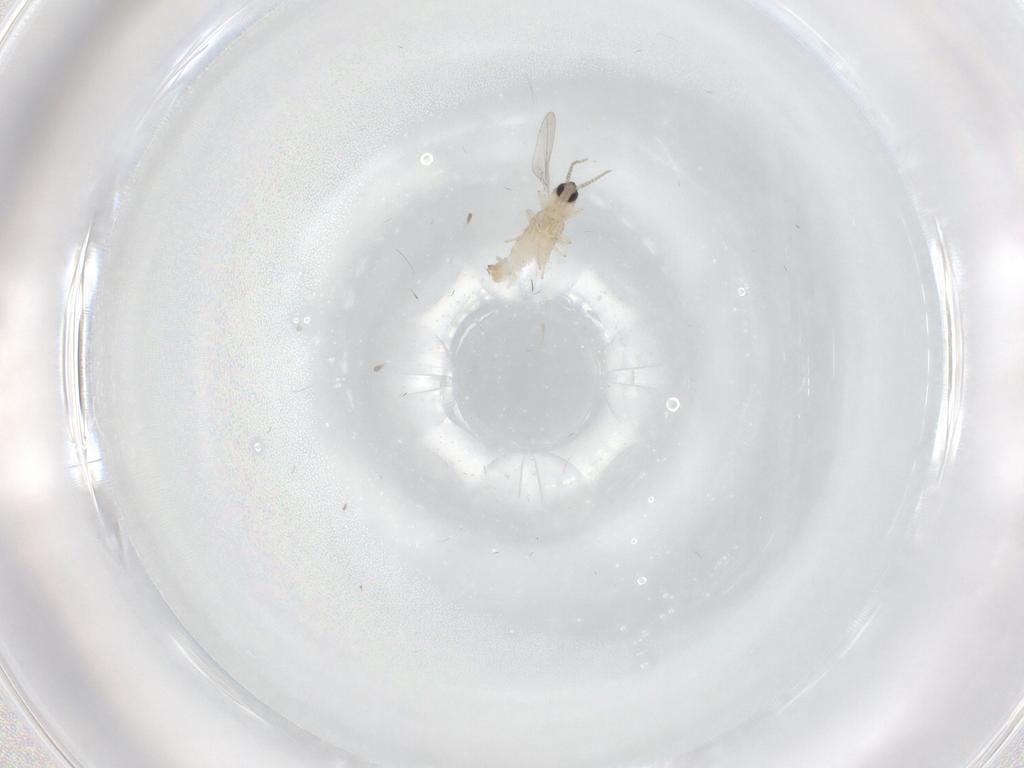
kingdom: Animalia
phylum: Arthropoda
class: Insecta
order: Diptera
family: Cecidomyiidae
